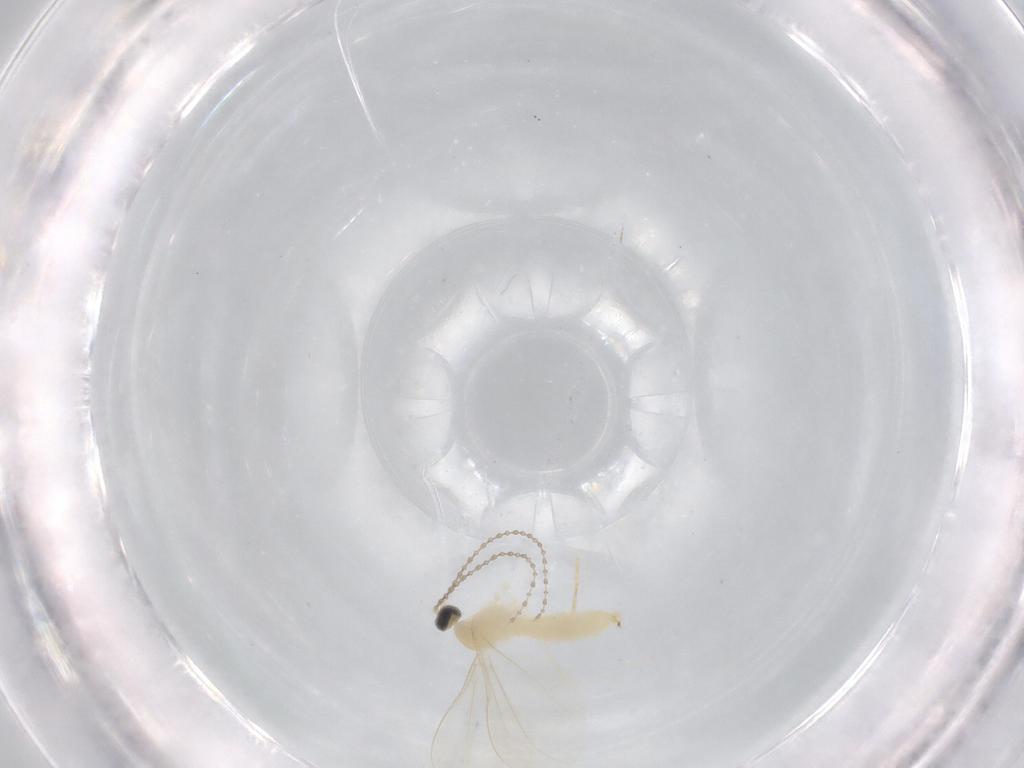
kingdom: Animalia
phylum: Arthropoda
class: Insecta
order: Diptera
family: Cecidomyiidae
